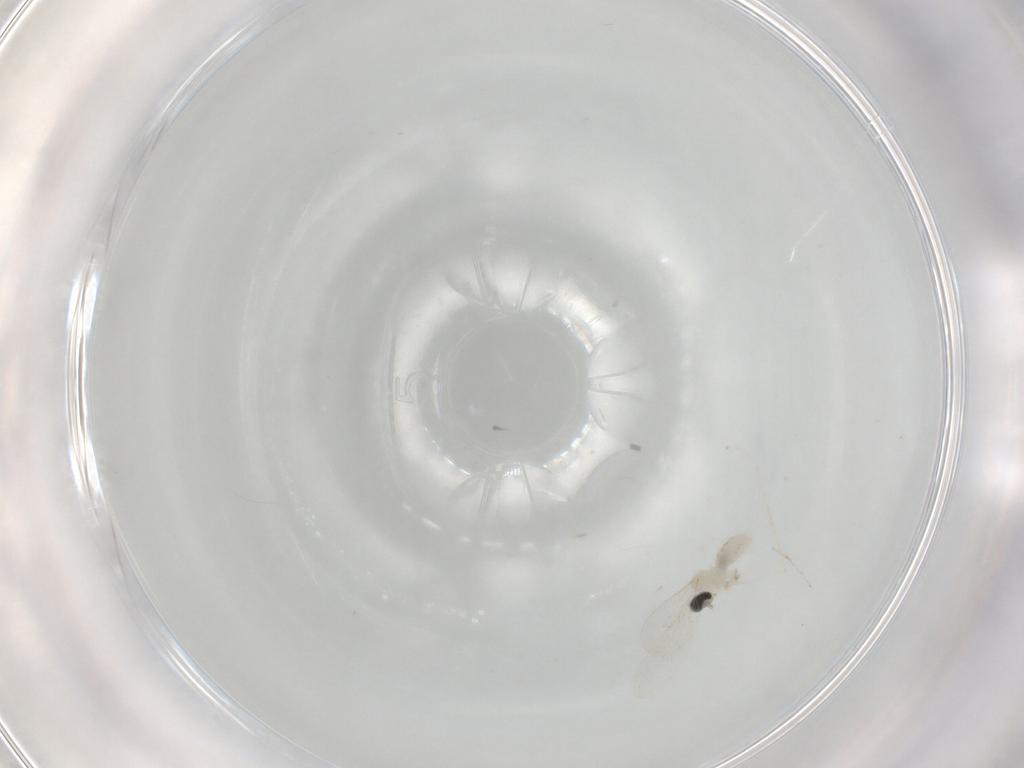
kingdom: Animalia
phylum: Arthropoda
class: Insecta
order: Diptera
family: Cecidomyiidae
